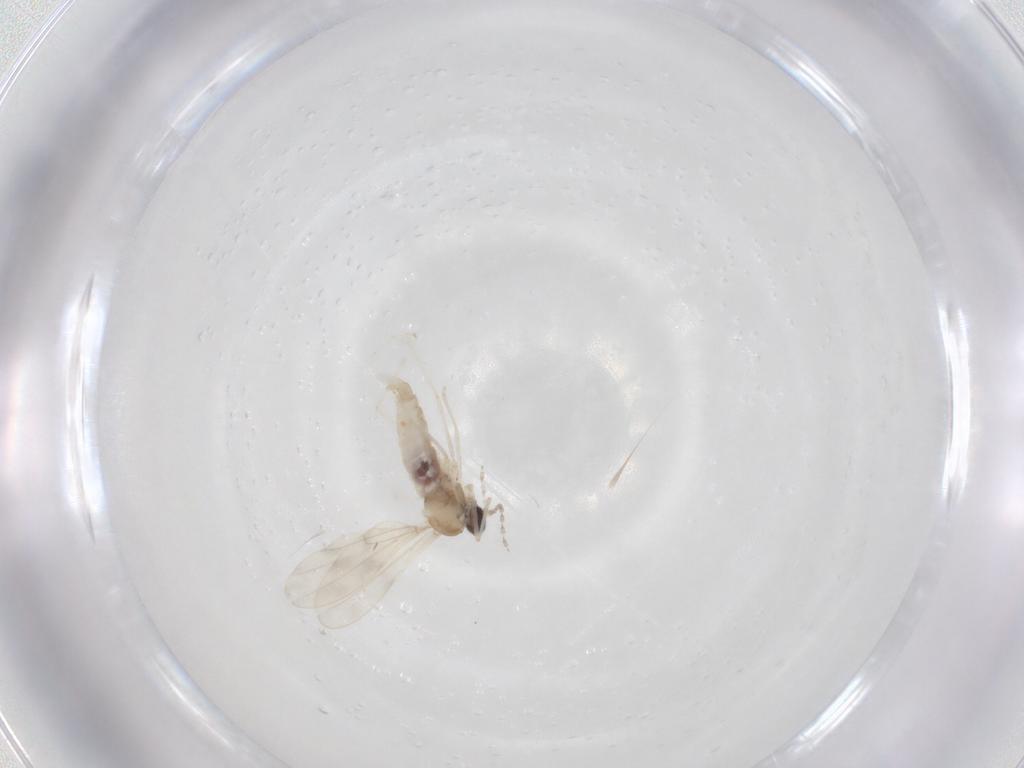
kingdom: Animalia
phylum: Arthropoda
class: Insecta
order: Diptera
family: Cecidomyiidae
